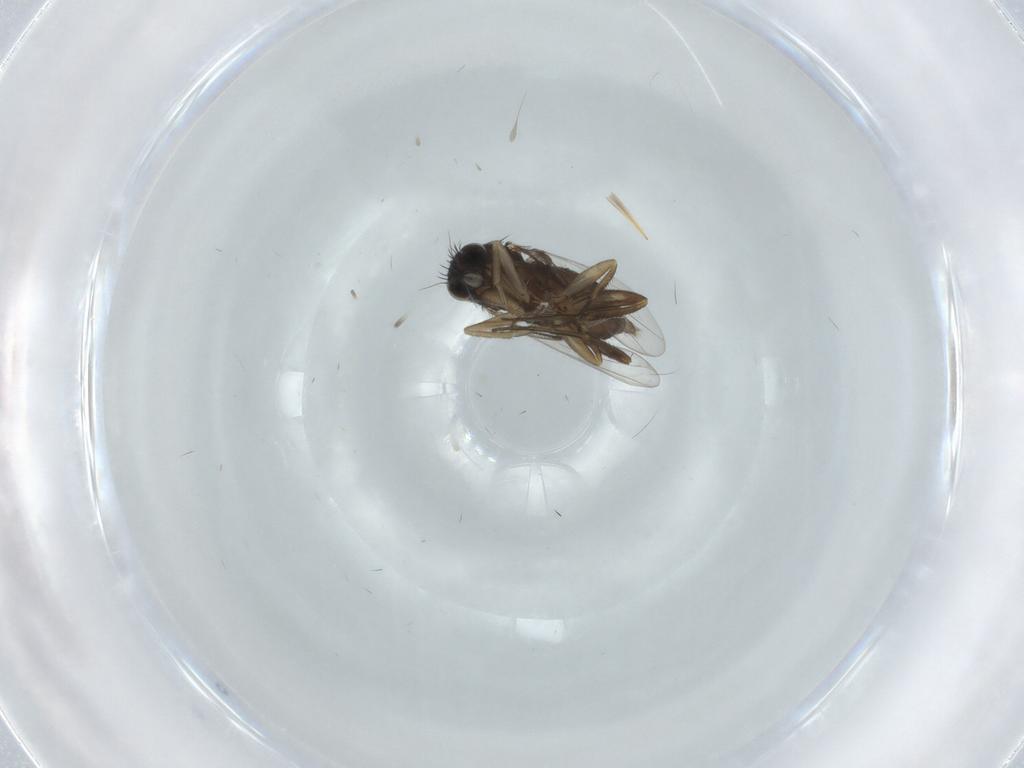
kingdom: Animalia
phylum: Arthropoda
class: Insecta
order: Diptera
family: Phoridae
